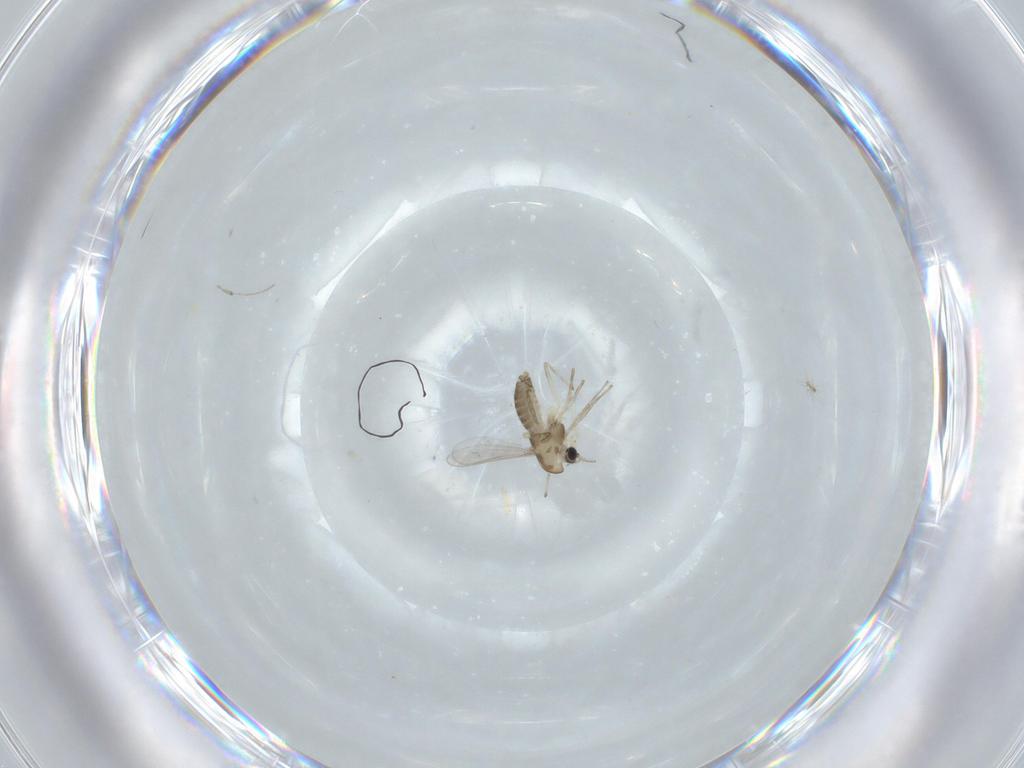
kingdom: Animalia
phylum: Arthropoda
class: Insecta
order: Diptera
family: Chironomidae
